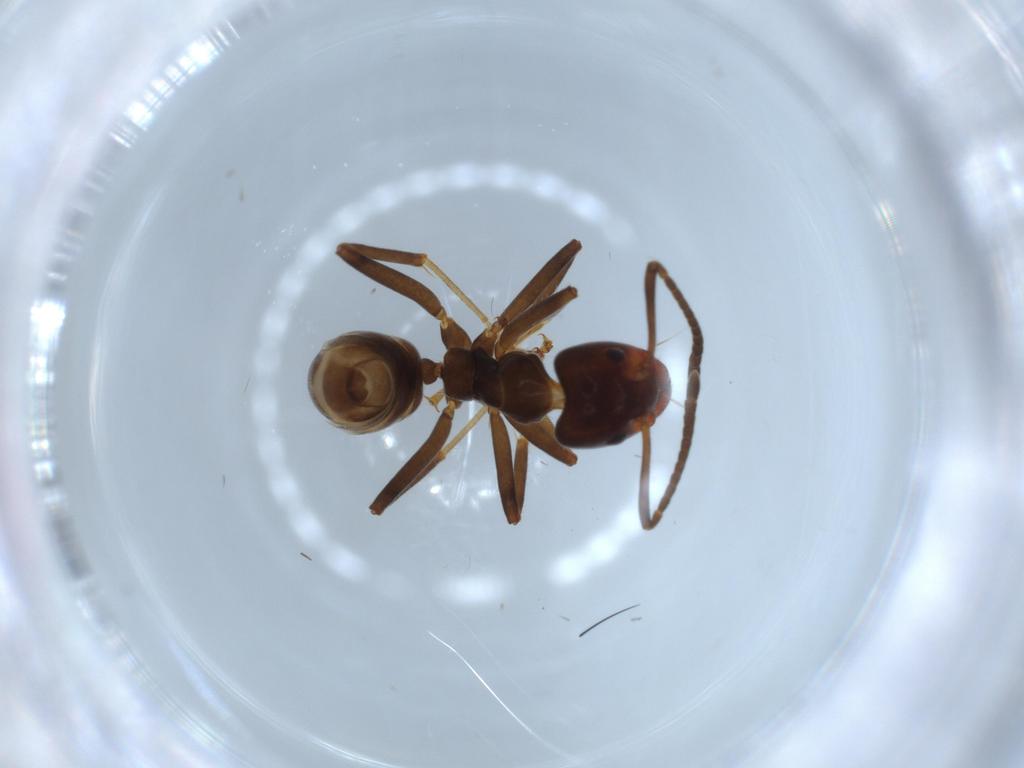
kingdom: Animalia
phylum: Arthropoda
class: Insecta
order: Hymenoptera
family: Formicidae
